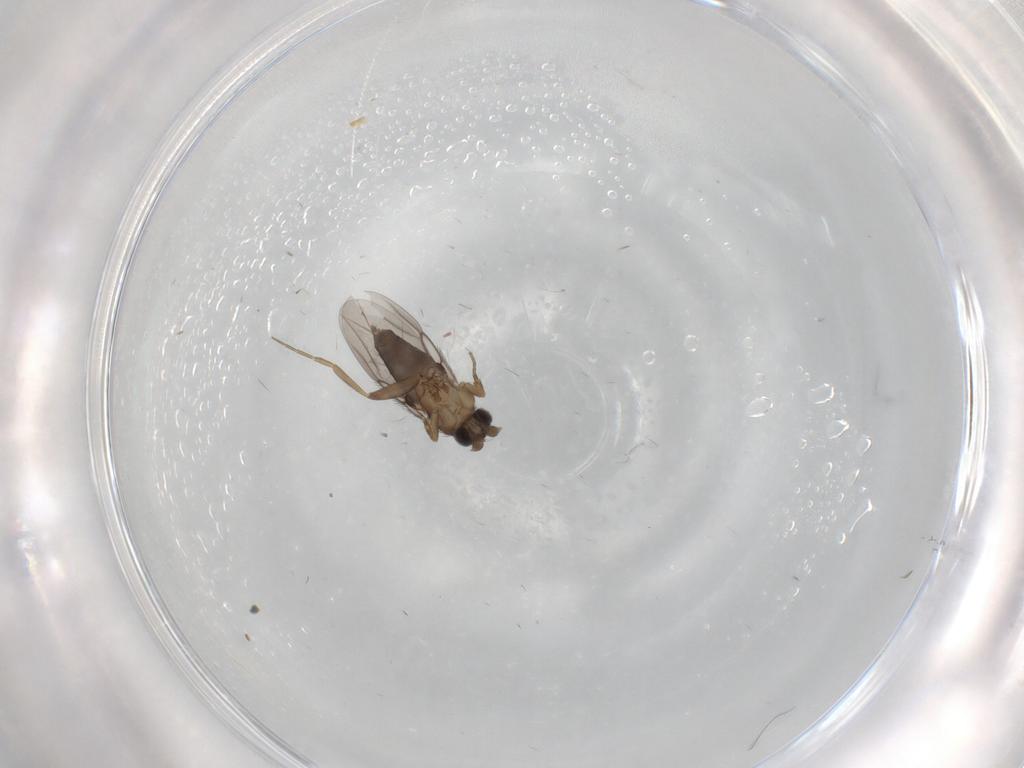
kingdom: Animalia
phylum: Arthropoda
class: Insecta
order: Diptera
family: Phoridae
